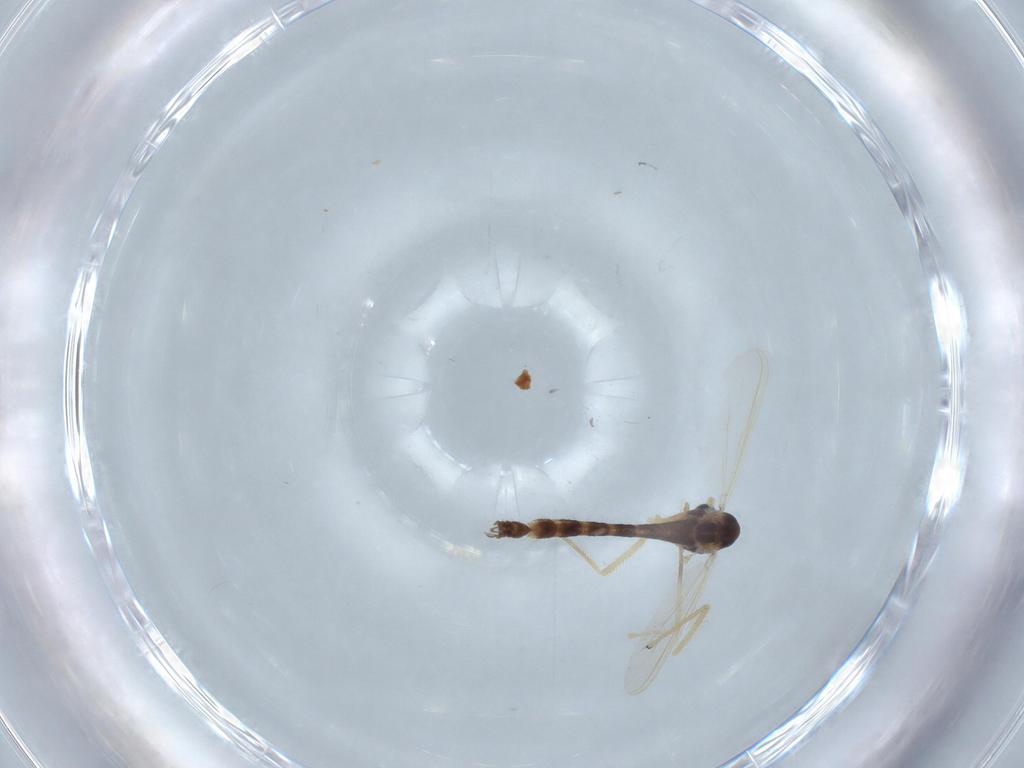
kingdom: Animalia
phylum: Arthropoda
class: Insecta
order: Diptera
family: Chironomidae
